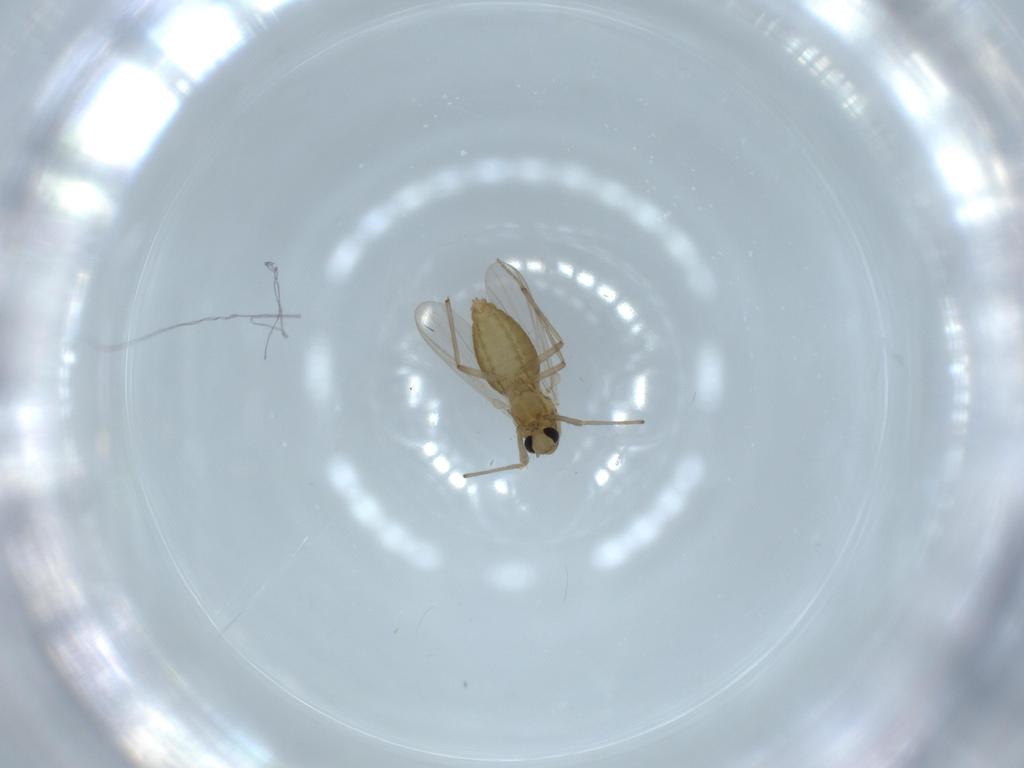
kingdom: Animalia
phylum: Arthropoda
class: Insecta
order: Diptera
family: Chironomidae
